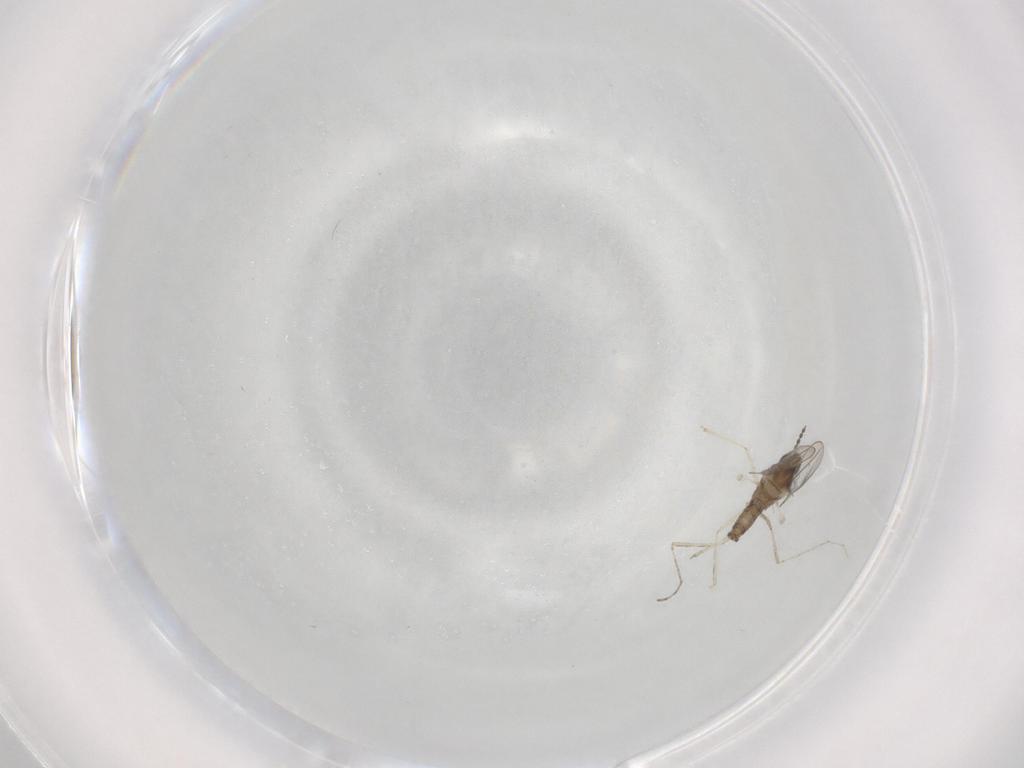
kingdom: Animalia
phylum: Arthropoda
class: Insecta
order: Diptera
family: Cecidomyiidae
